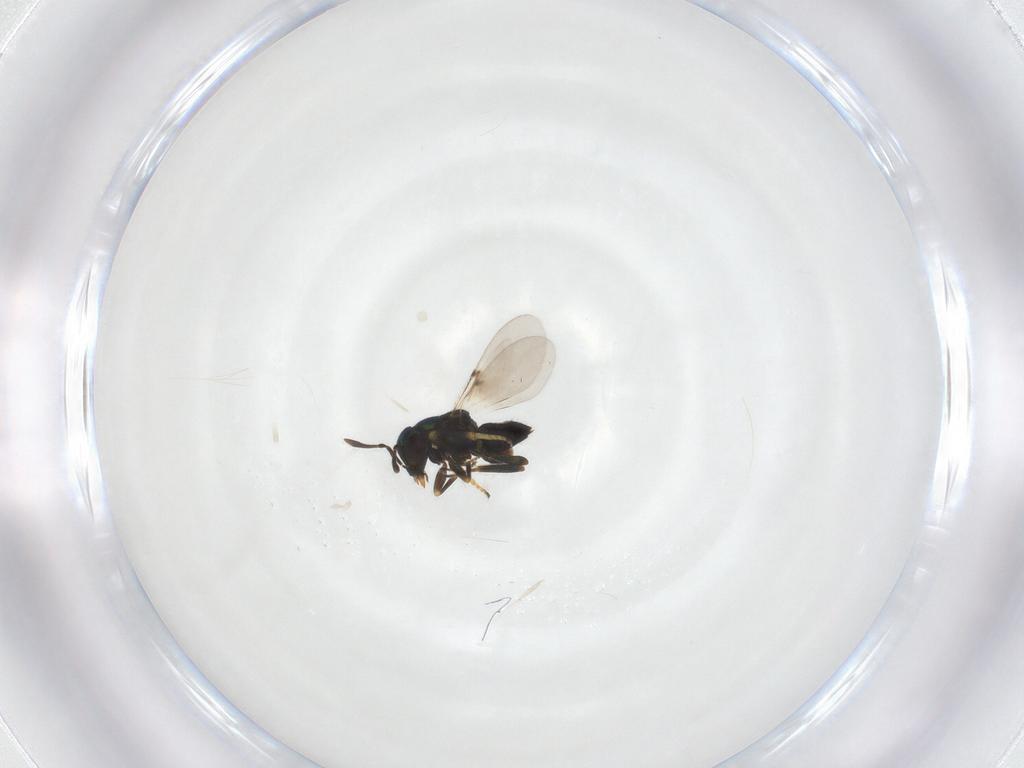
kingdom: Animalia
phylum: Arthropoda
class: Insecta
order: Hymenoptera
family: Encyrtidae
